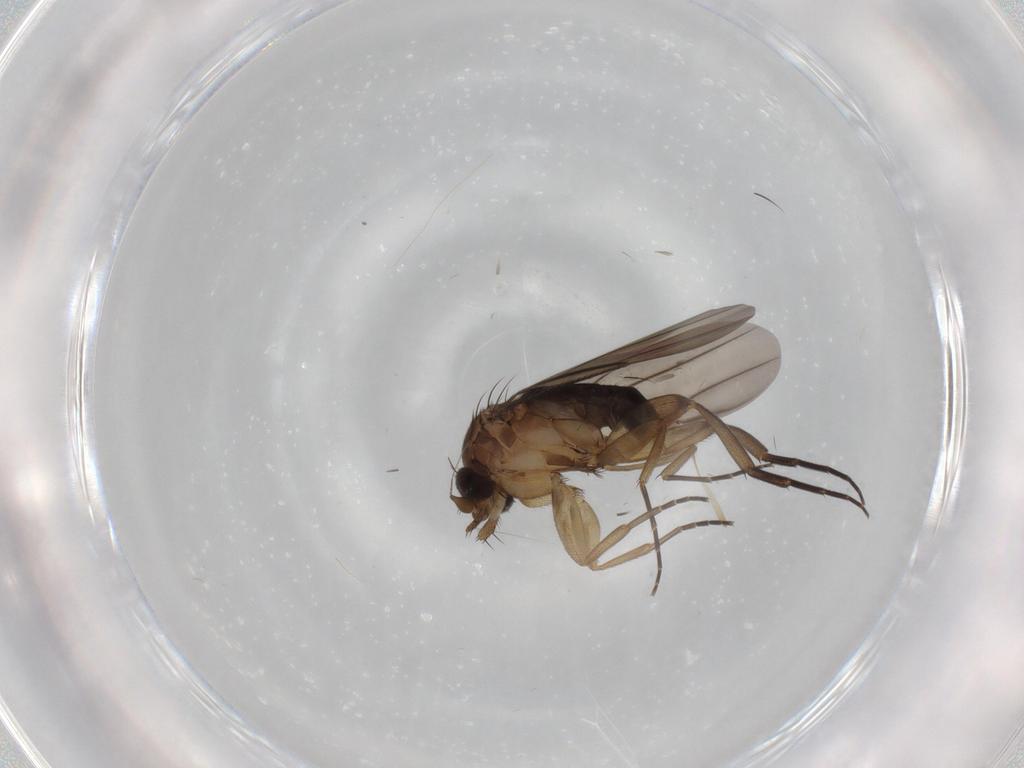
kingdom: Animalia
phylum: Arthropoda
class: Insecta
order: Diptera
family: Phoridae
